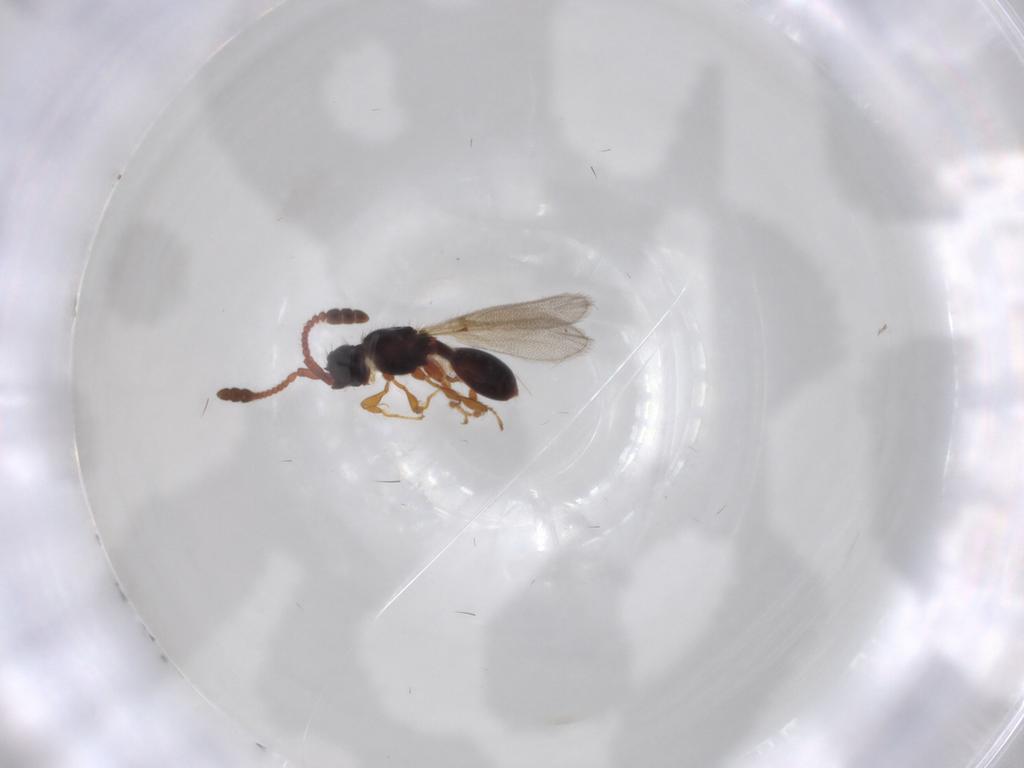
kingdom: Animalia
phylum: Arthropoda
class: Insecta
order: Hymenoptera
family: Diapriidae
